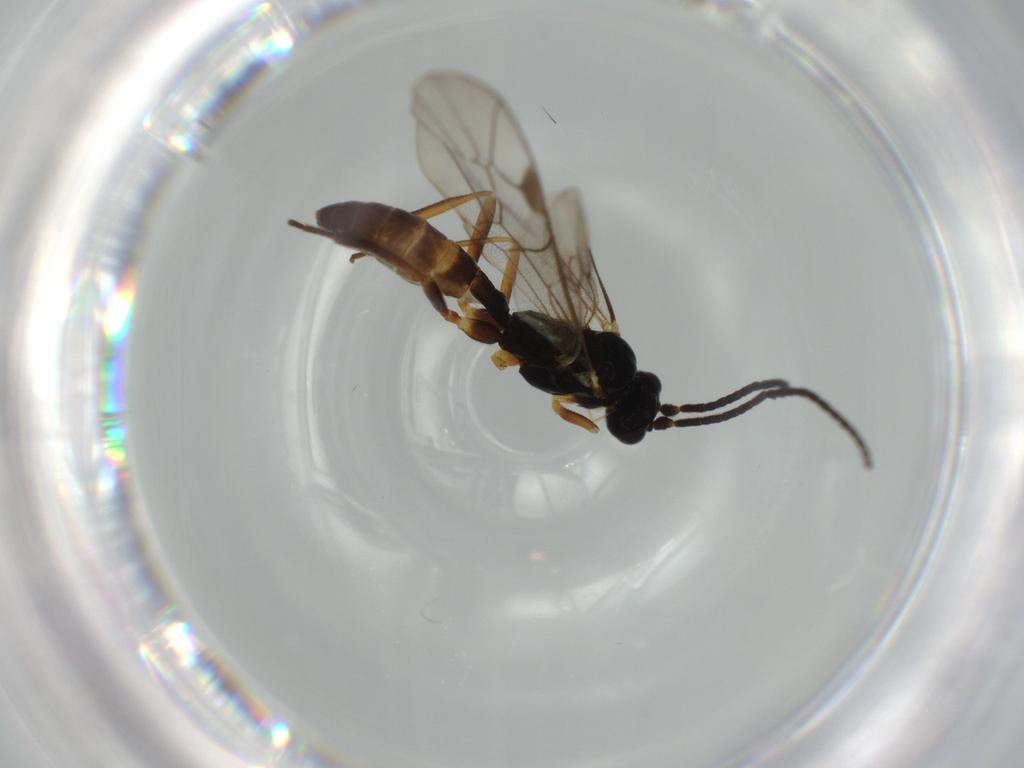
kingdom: Animalia
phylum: Arthropoda
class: Insecta
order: Hymenoptera
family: Ichneumonidae
